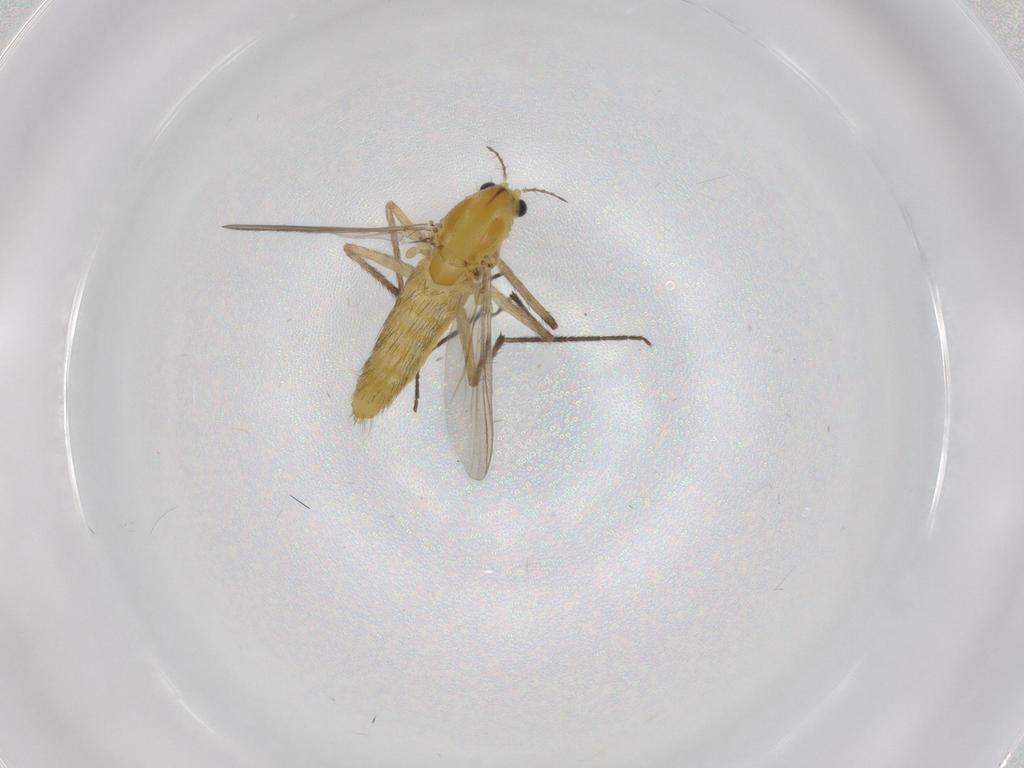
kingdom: Animalia
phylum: Arthropoda
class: Insecta
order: Diptera
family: Chironomidae
